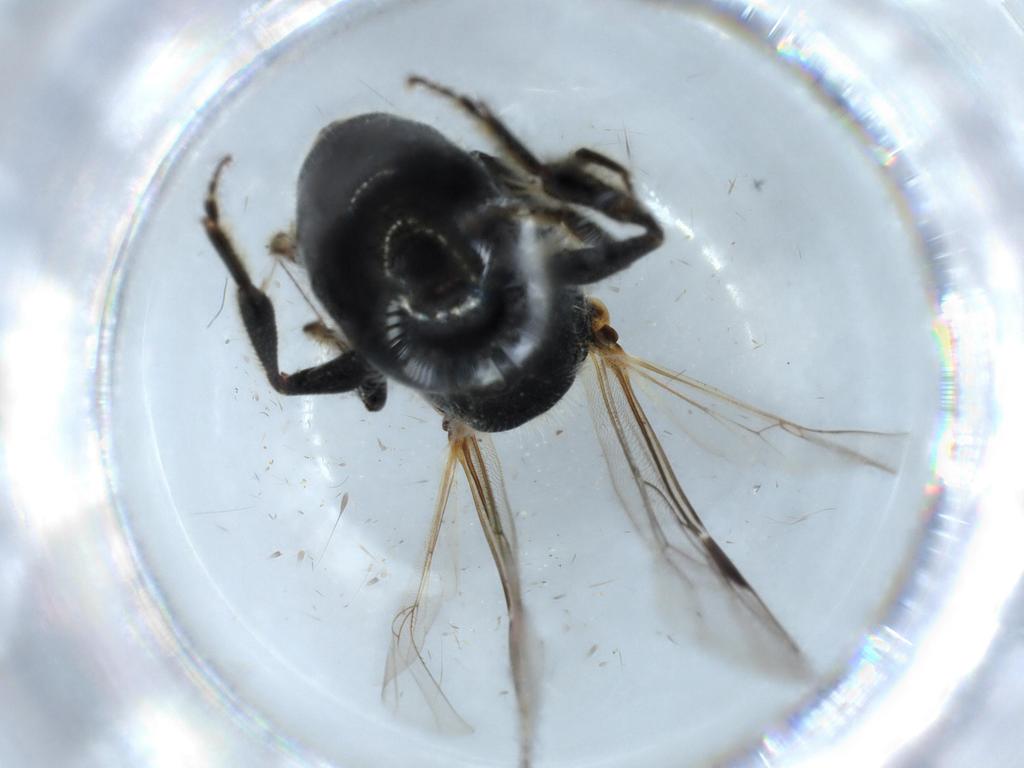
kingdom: Animalia
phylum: Arthropoda
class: Insecta
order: Hymenoptera
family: Halictidae
